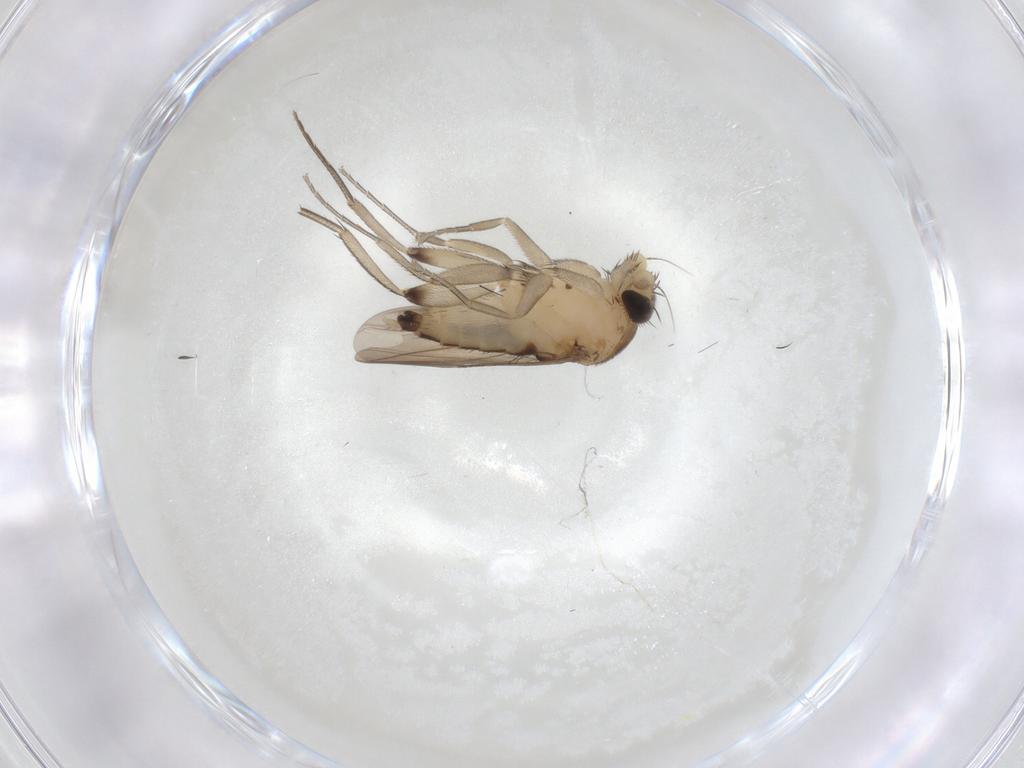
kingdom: Animalia
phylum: Arthropoda
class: Insecta
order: Diptera
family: Phoridae
